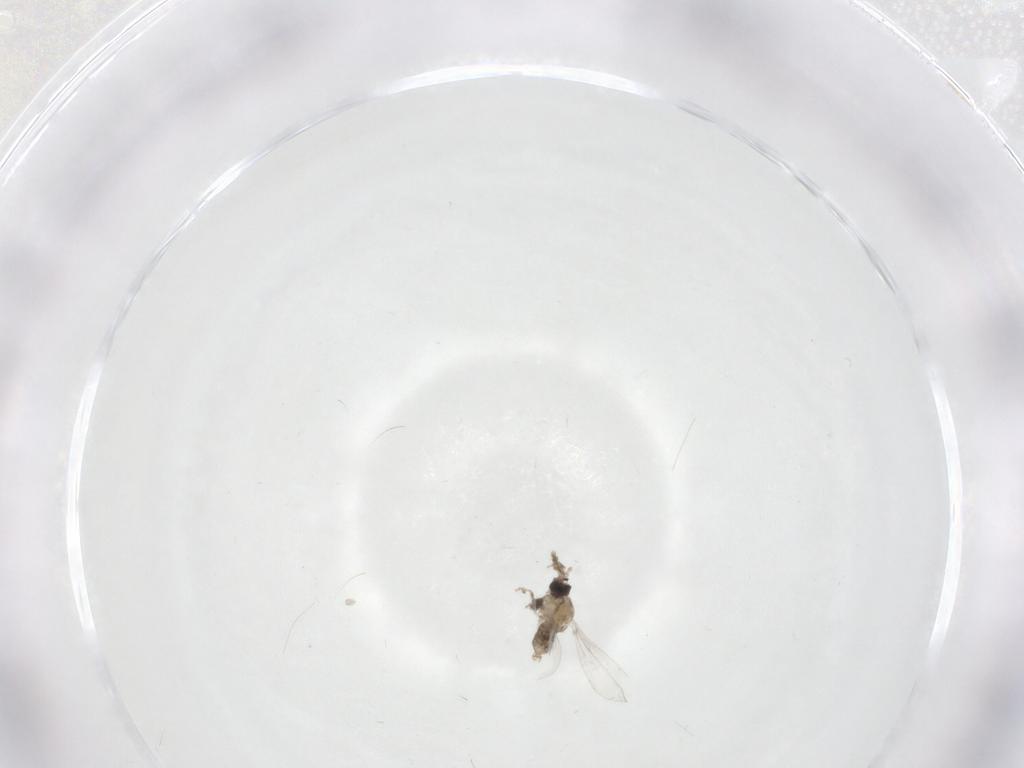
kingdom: Animalia
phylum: Arthropoda
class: Insecta
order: Diptera
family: Cecidomyiidae
